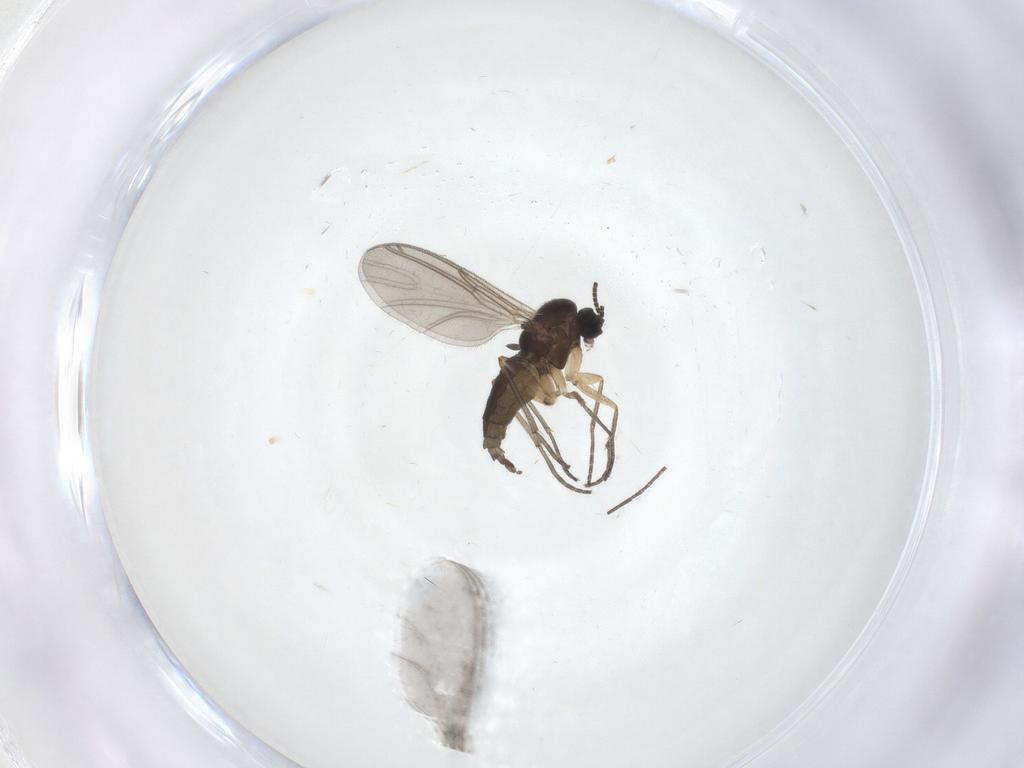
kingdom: Animalia
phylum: Arthropoda
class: Insecta
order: Diptera
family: Sciaridae
